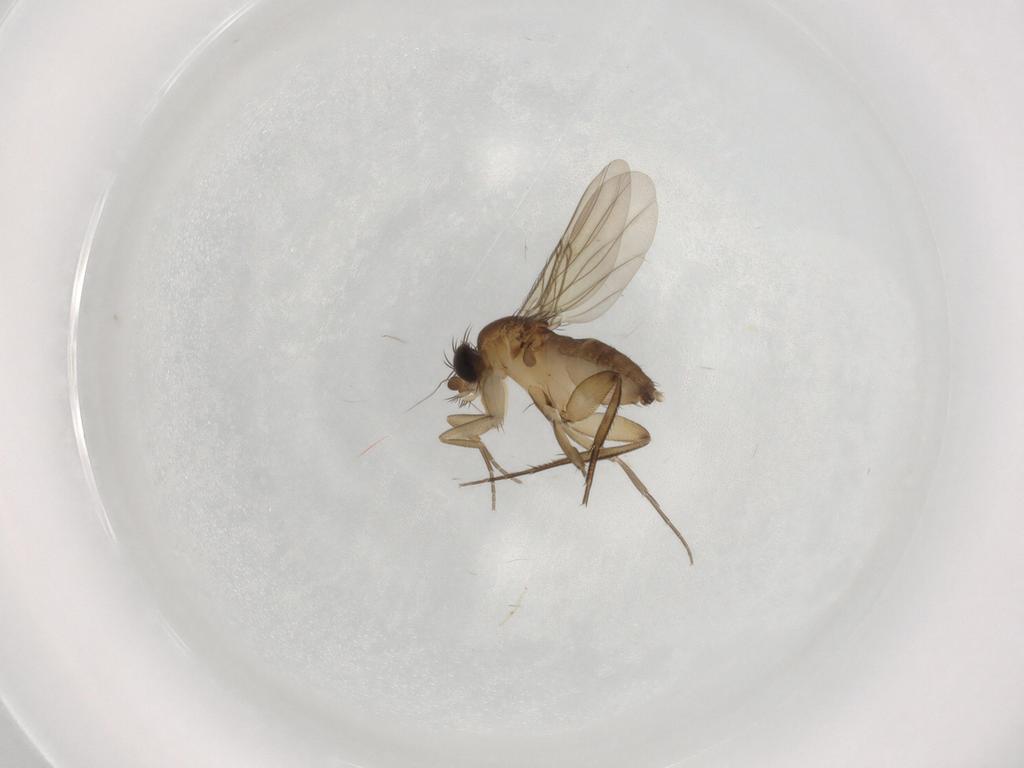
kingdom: Animalia
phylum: Arthropoda
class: Insecta
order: Diptera
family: Phoridae
